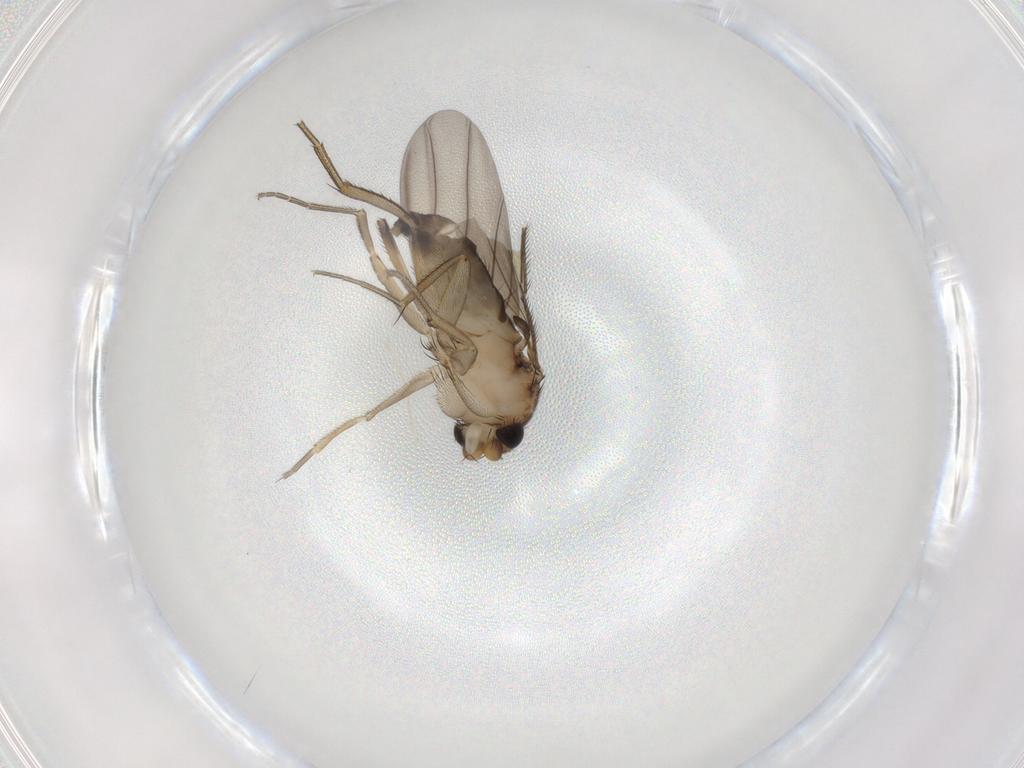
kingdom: Animalia
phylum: Arthropoda
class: Insecta
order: Diptera
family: Phoridae
